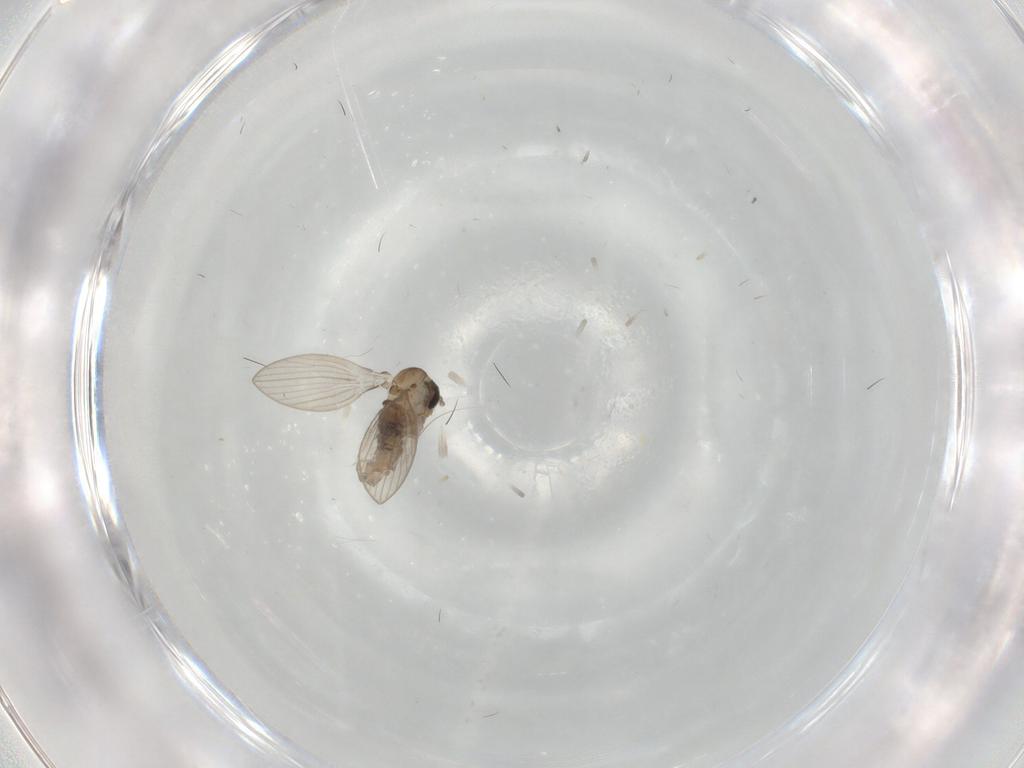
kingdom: Animalia
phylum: Arthropoda
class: Insecta
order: Diptera
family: Psychodidae
